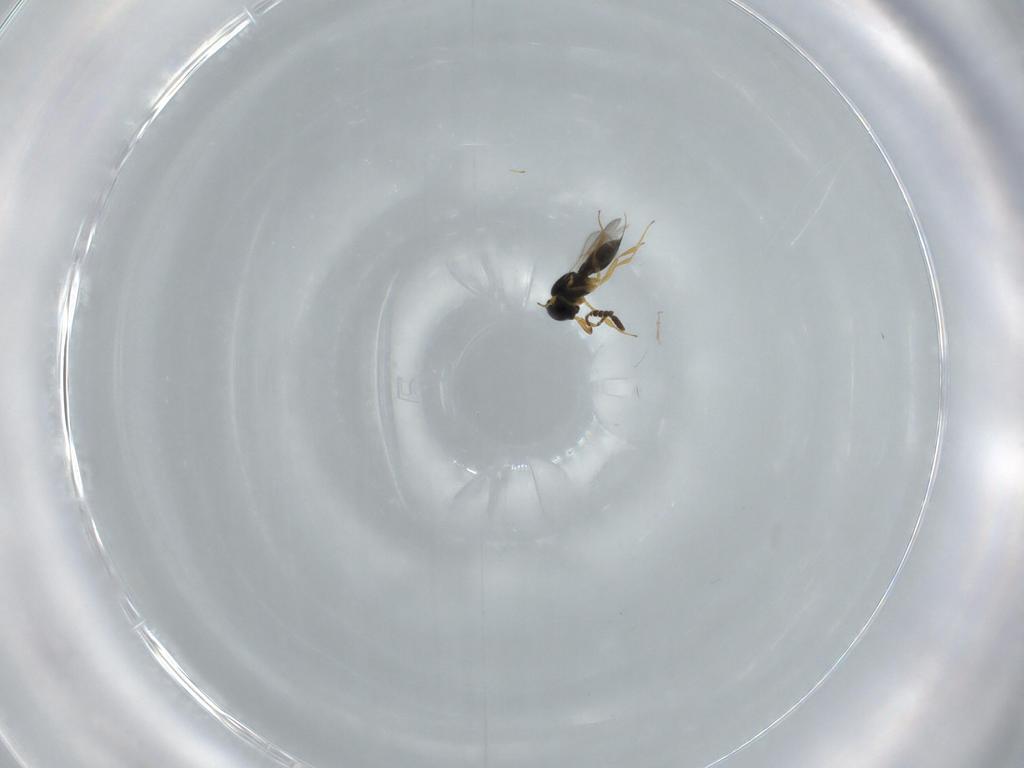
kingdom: Animalia
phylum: Arthropoda
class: Insecta
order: Hymenoptera
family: Scelionidae
